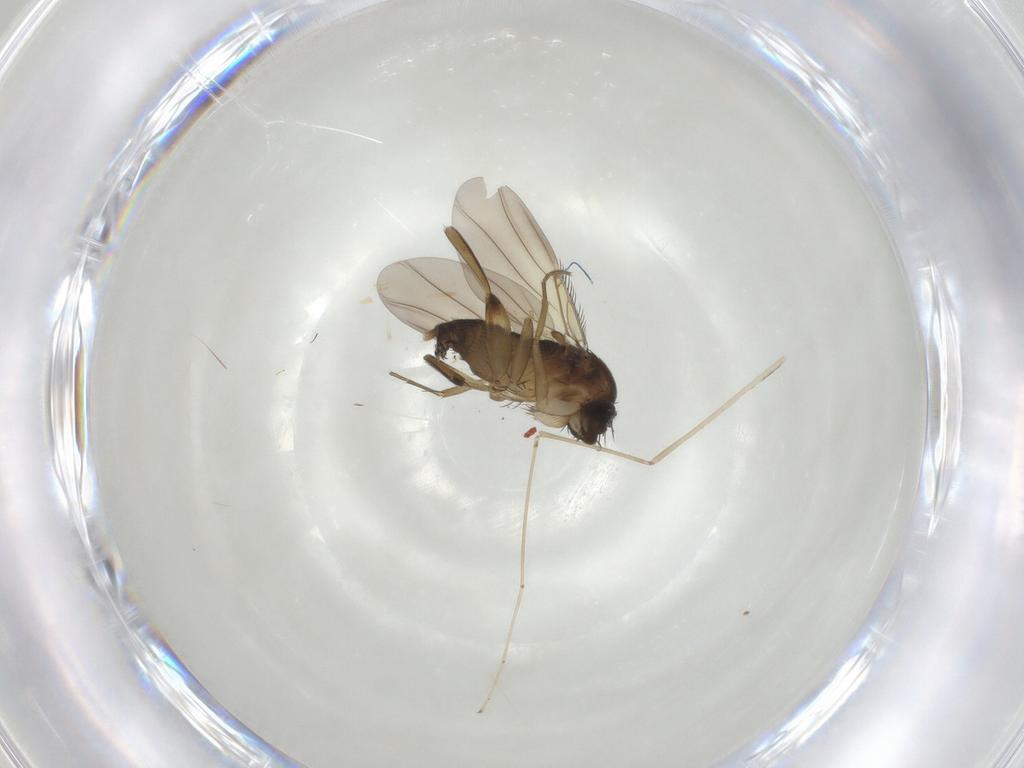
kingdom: Animalia
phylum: Arthropoda
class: Insecta
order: Diptera
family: Phoridae
